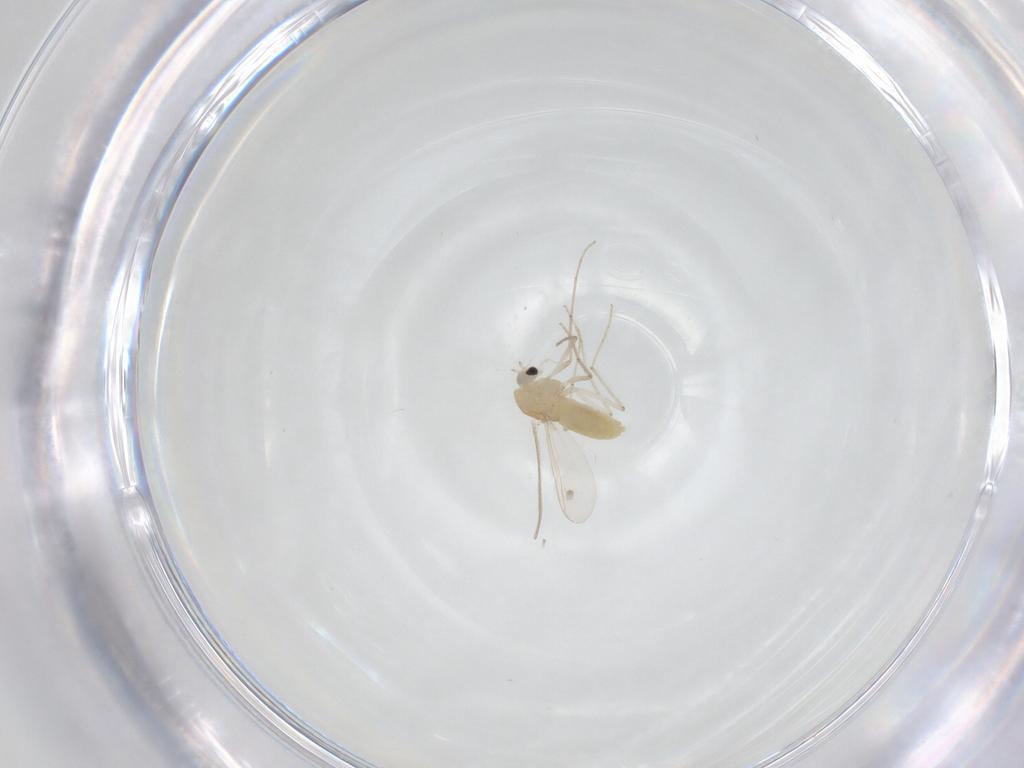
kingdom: Animalia
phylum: Arthropoda
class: Insecta
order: Diptera
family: Chironomidae
